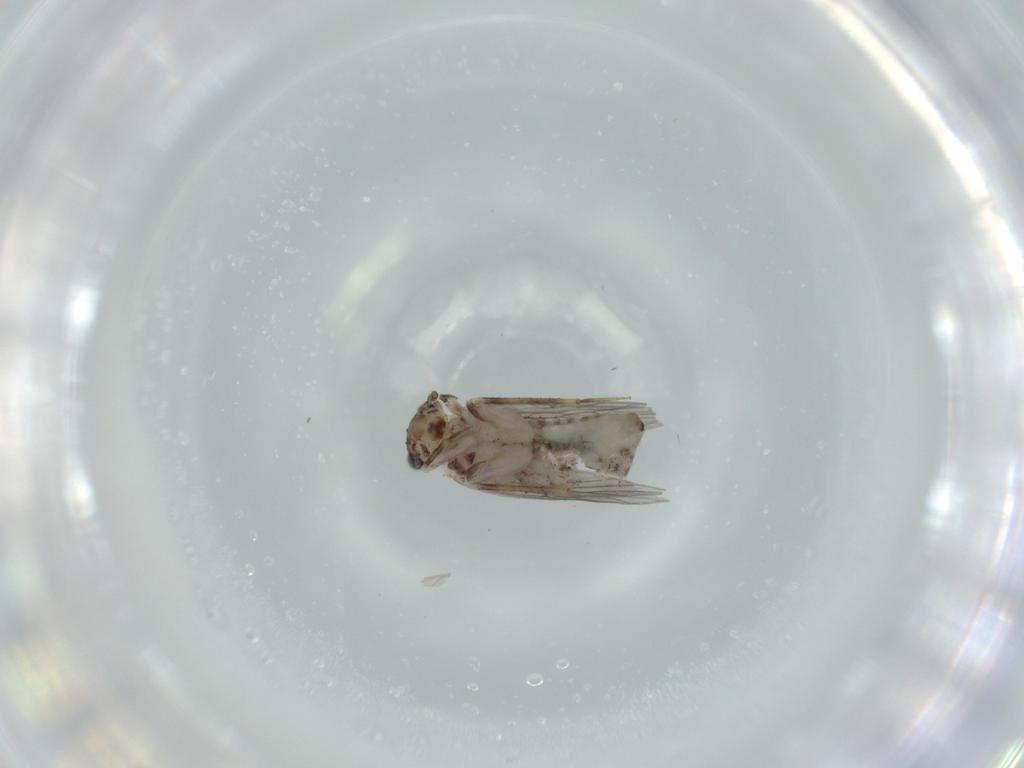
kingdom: Animalia
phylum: Arthropoda
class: Insecta
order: Psocodea
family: Lepidopsocidae
